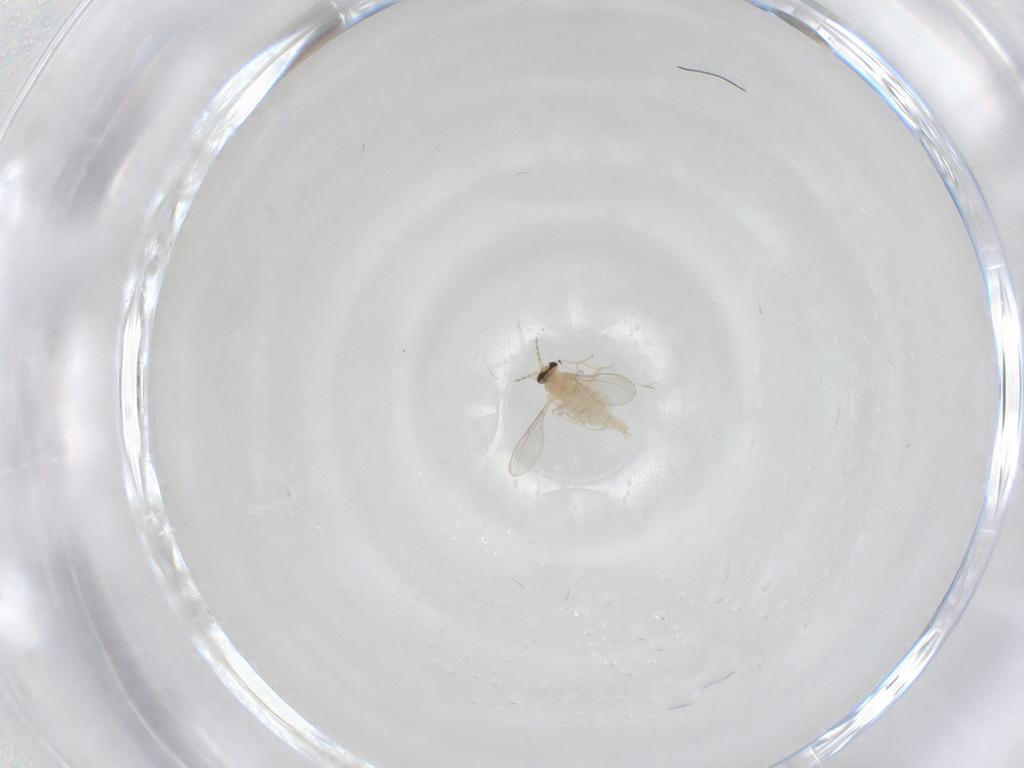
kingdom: Animalia
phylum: Arthropoda
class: Insecta
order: Diptera
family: Cecidomyiidae
